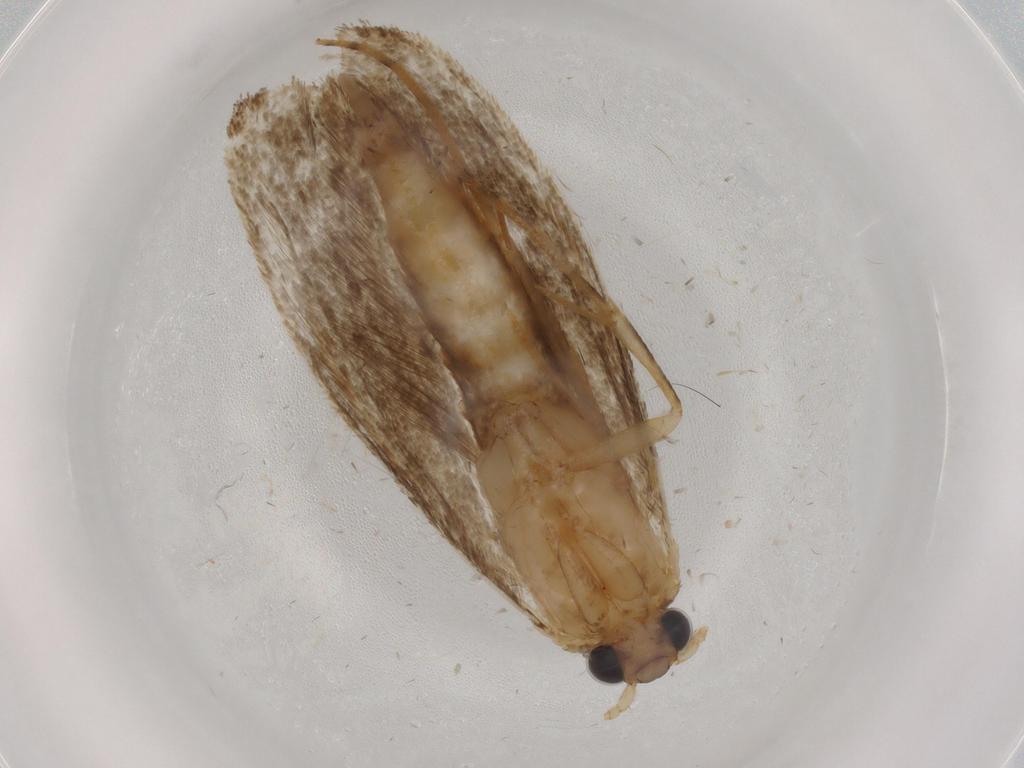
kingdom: Animalia
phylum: Arthropoda
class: Insecta
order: Lepidoptera
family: Tineidae
